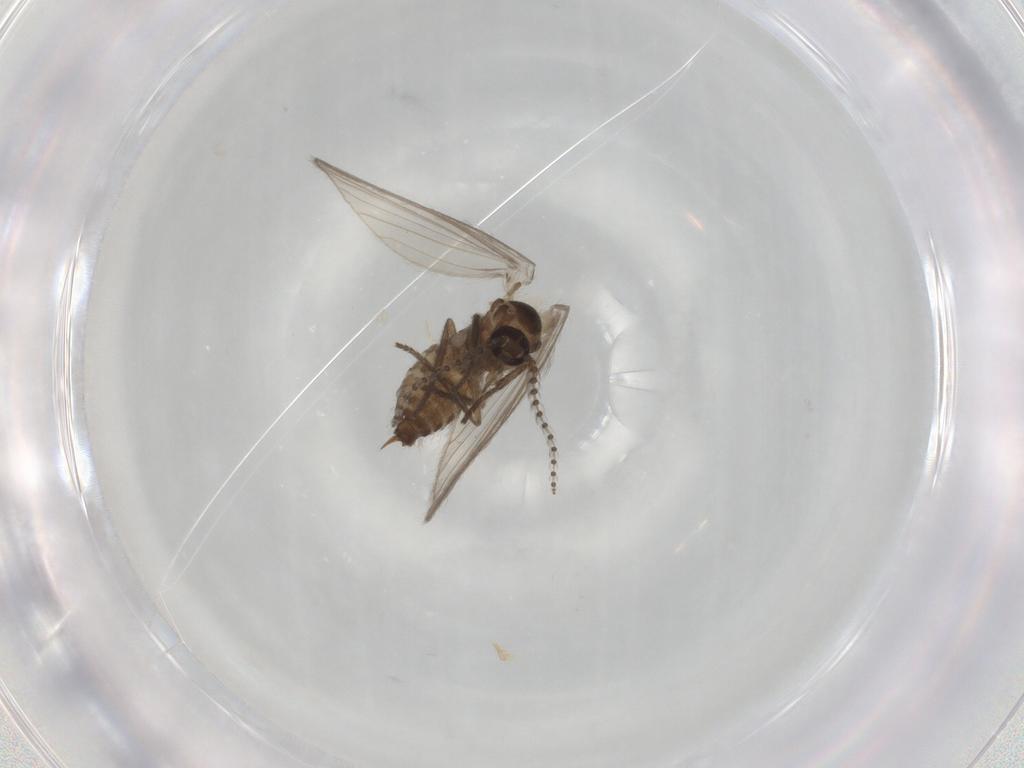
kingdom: Animalia
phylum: Arthropoda
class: Insecta
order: Diptera
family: Psychodidae
